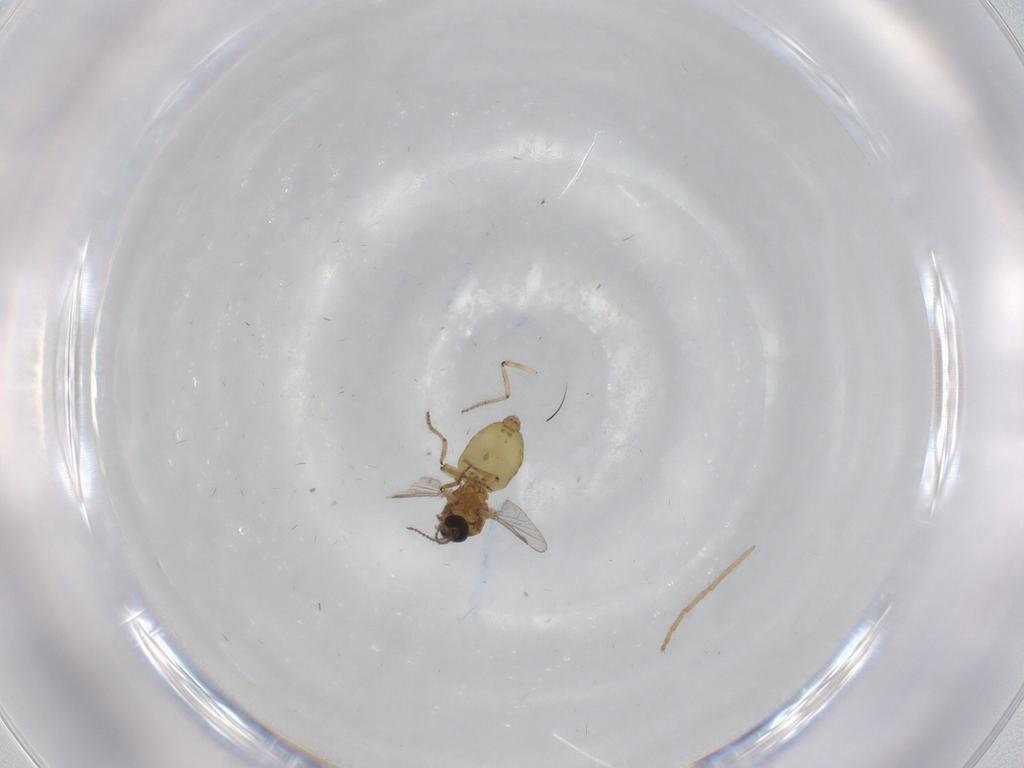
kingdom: Animalia
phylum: Arthropoda
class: Insecta
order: Diptera
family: Ceratopogonidae
